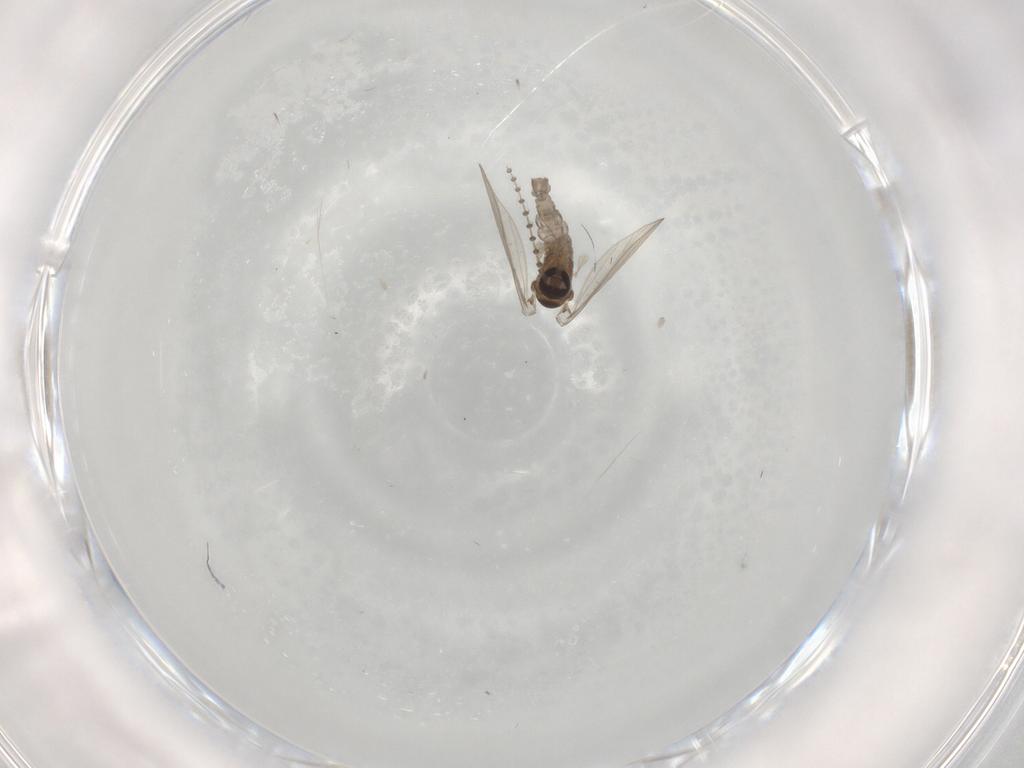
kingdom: Animalia
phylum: Arthropoda
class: Insecta
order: Diptera
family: Psychodidae
